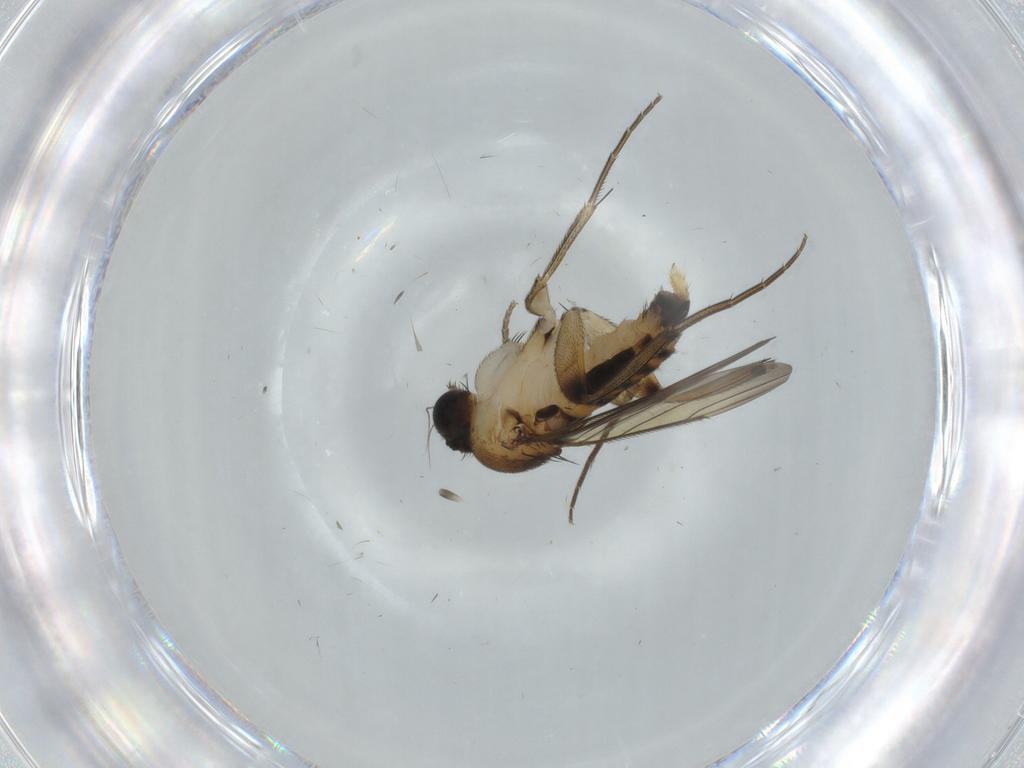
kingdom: Animalia
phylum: Arthropoda
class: Insecta
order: Diptera
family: Phoridae
